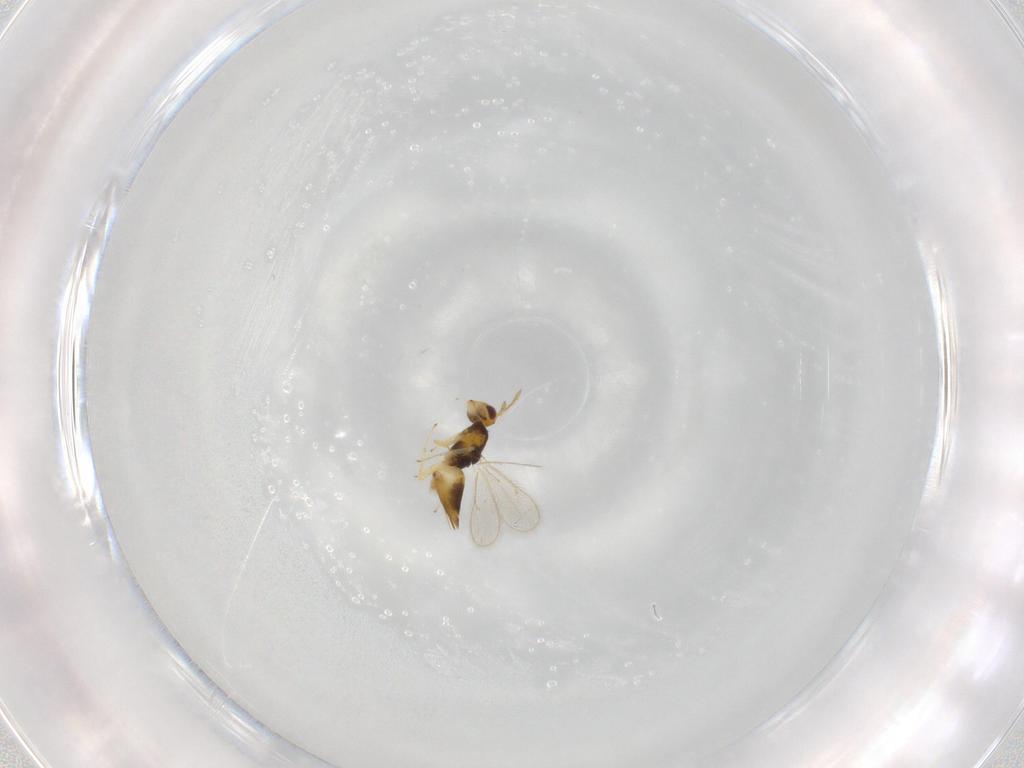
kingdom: Animalia
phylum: Arthropoda
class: Insecta
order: Hymenoptera
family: Eulophidae
